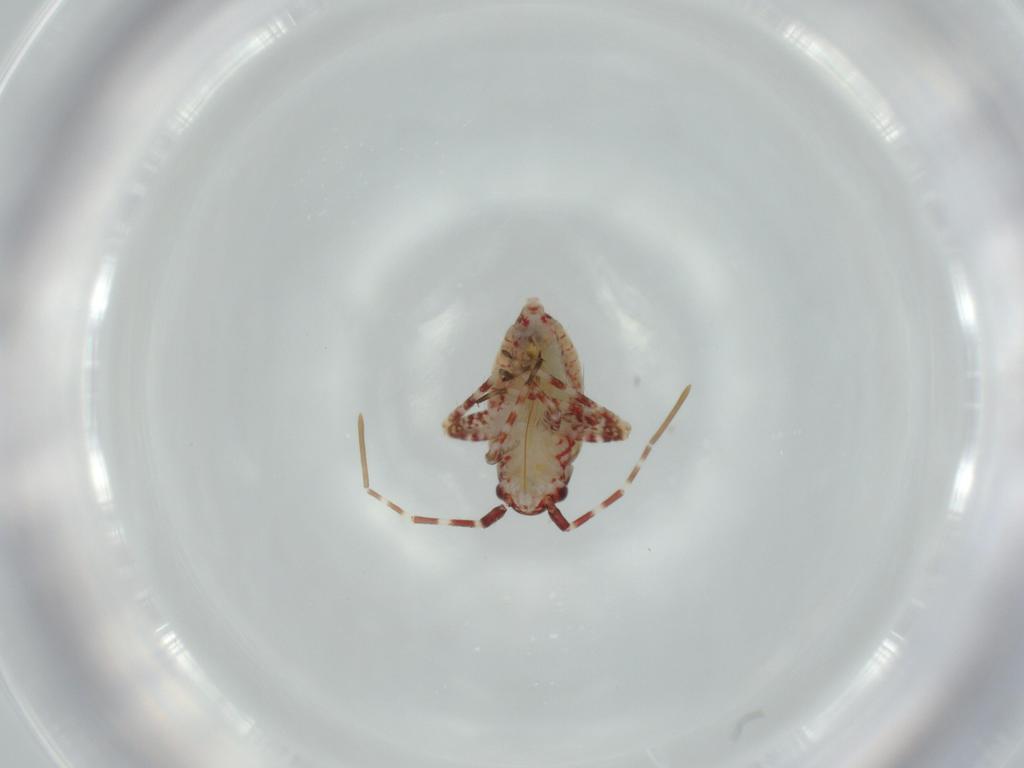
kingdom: Animalia
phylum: Arthropoda
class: Insecta
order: Hemiptera
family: Miridae
